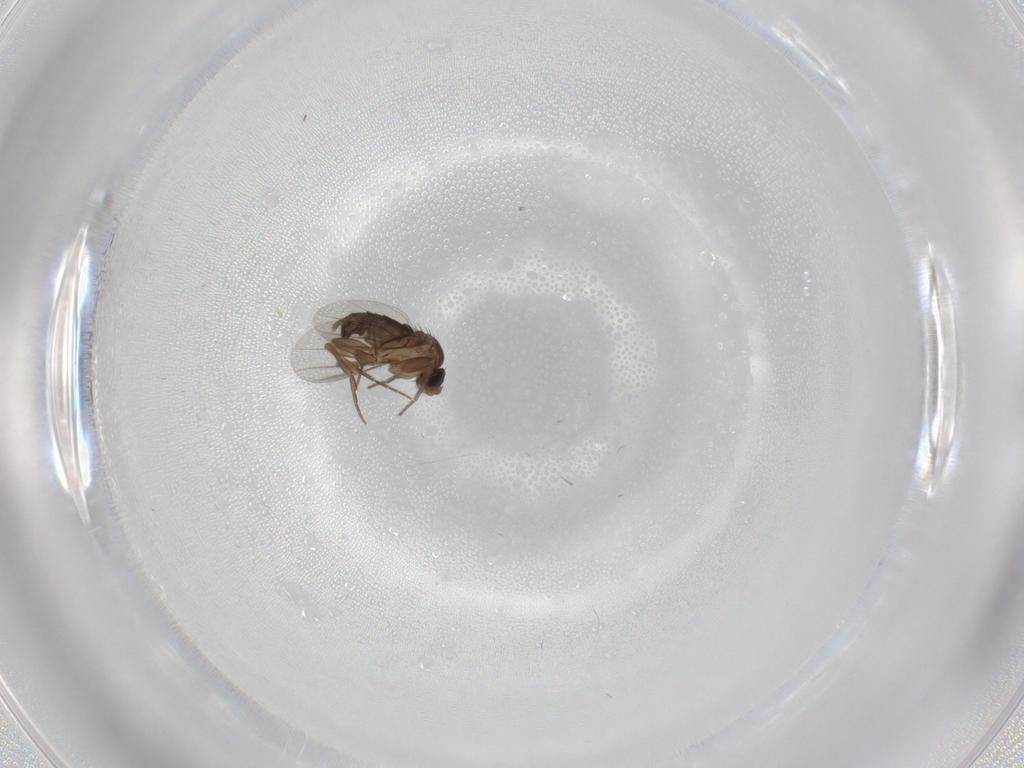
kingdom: Animalia
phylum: Arthropoda
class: Insecta
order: Diptera
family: Phoridae
